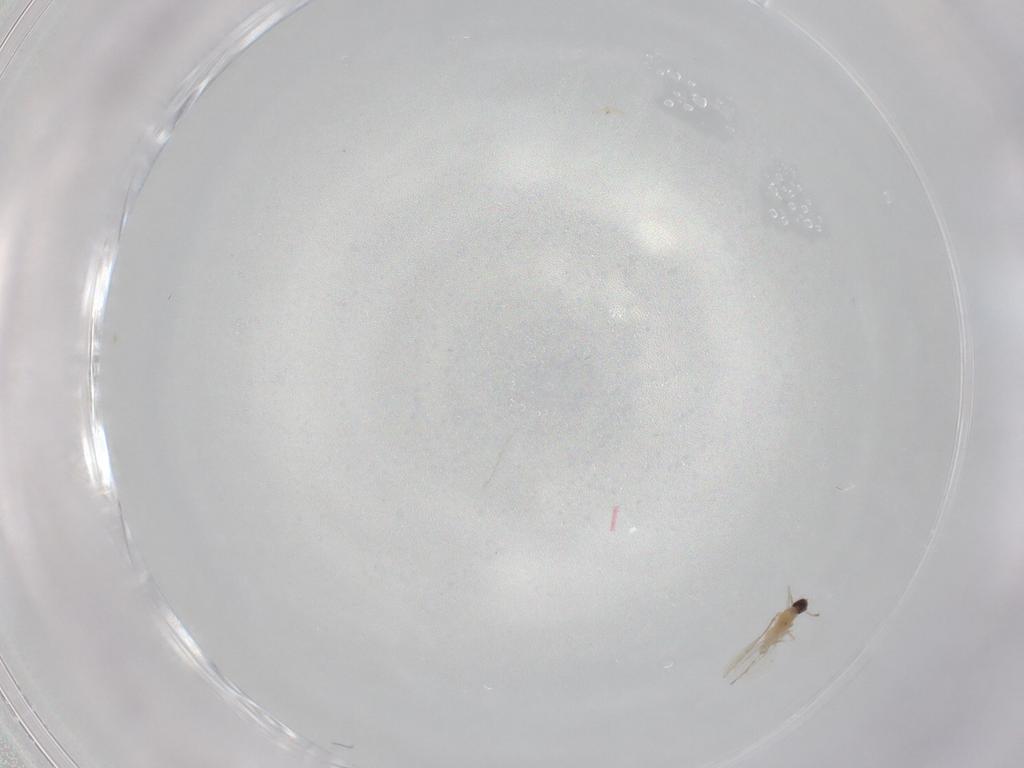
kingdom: Animalia
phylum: Arthropoda
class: Insecta
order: Diptera
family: Cecidomyiidae
